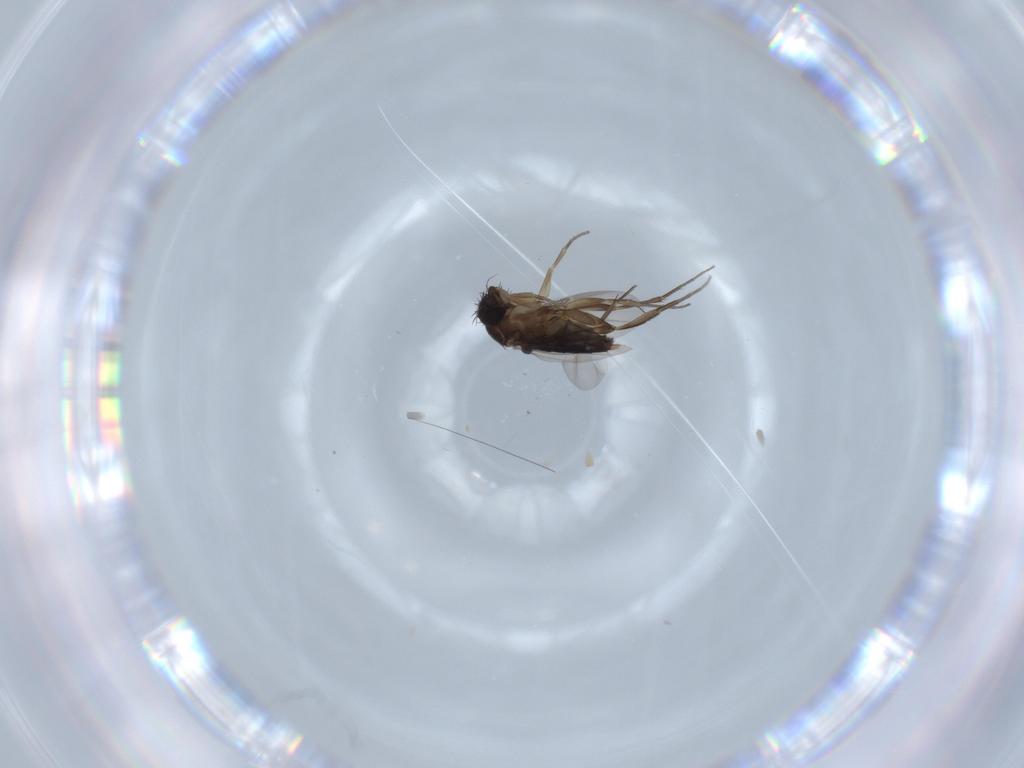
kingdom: Animalia
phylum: Arthropoda
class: Insecta
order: Diptera
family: Phoridae
